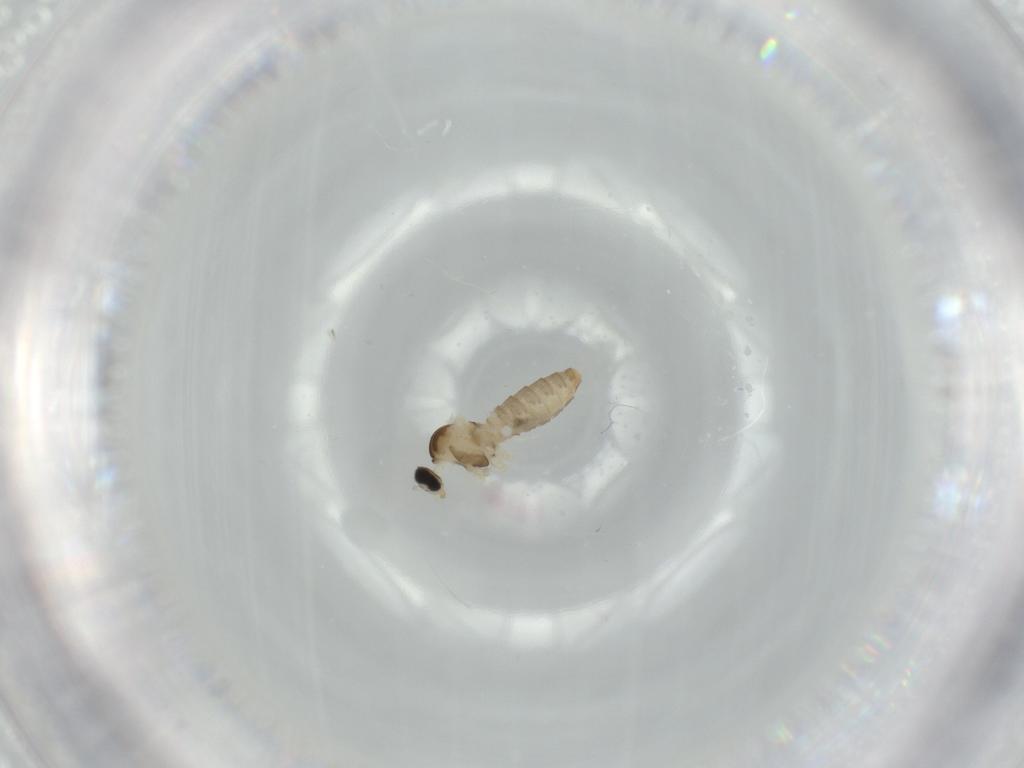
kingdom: Animalia
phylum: Arthropoda
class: Insecta
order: Diptera
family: Cecidomyiidae
